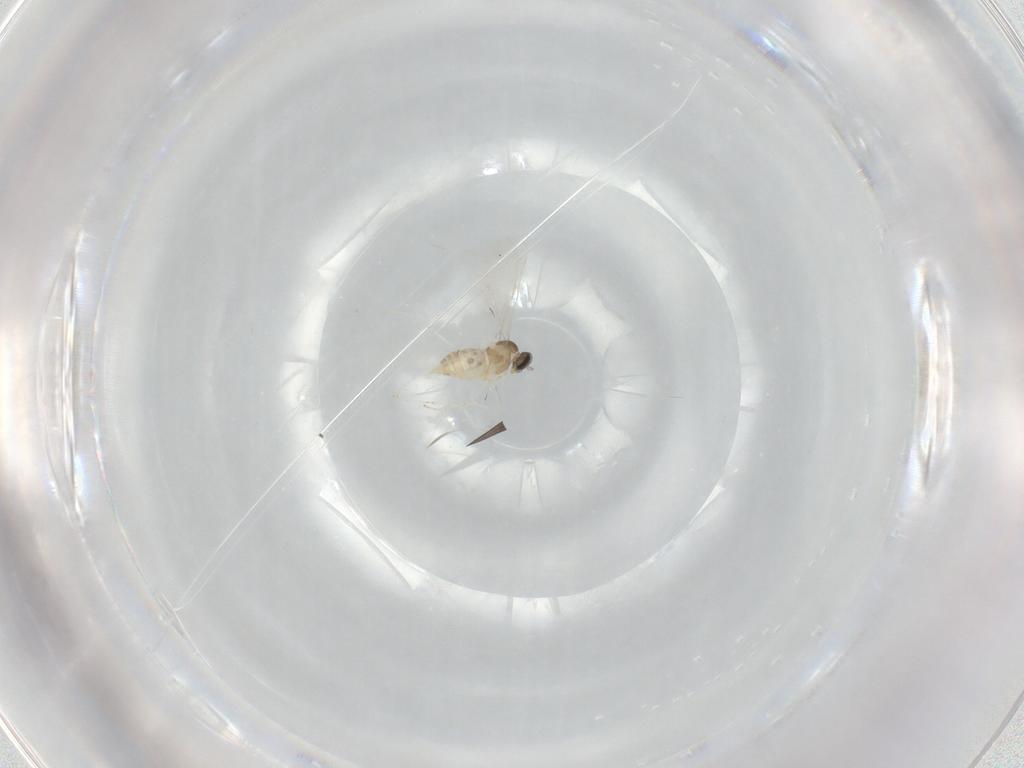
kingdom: Animalia
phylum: Arthropoda
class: Insecta
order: Diptera
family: Cecidomyiidae
